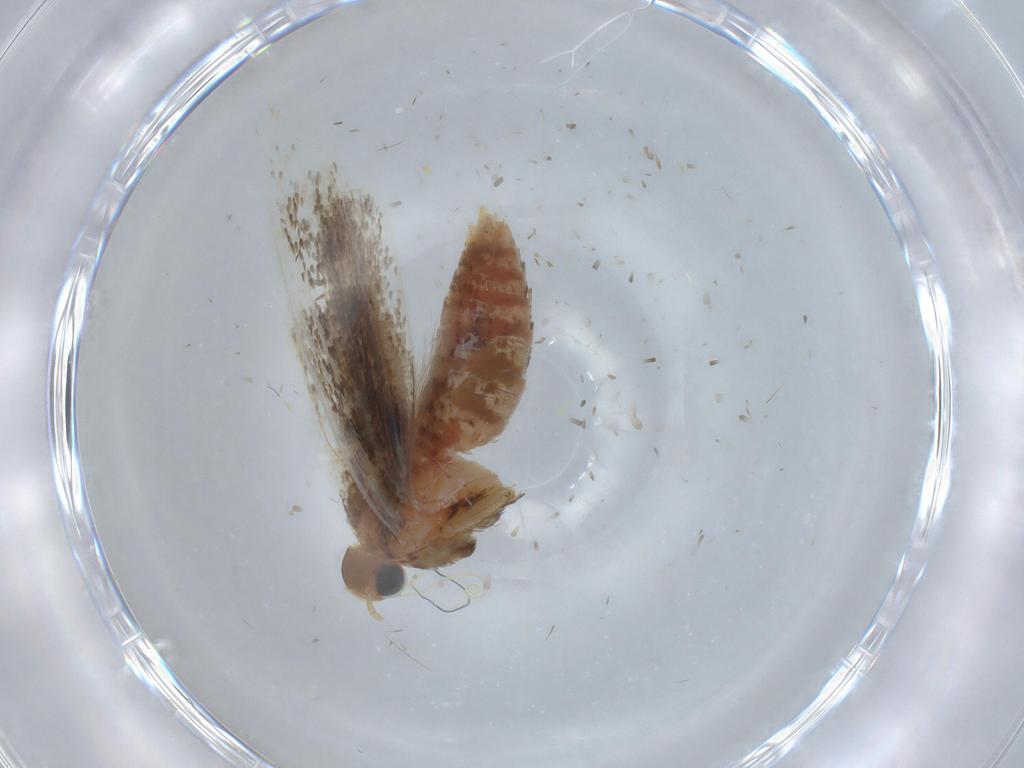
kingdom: Animalia
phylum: Arthropoda
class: Insecta
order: Lepidoptera
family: Gelechiidae
